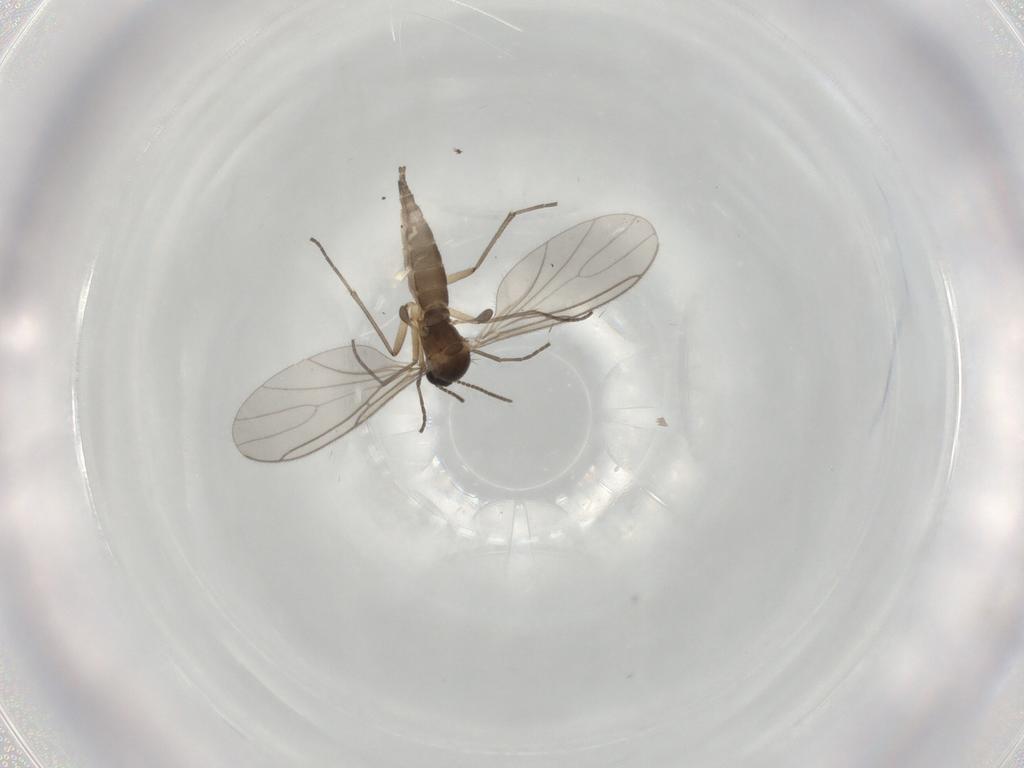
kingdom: Animalia
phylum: Arthropoda
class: Insecta
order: Diptera
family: Sciaridae
